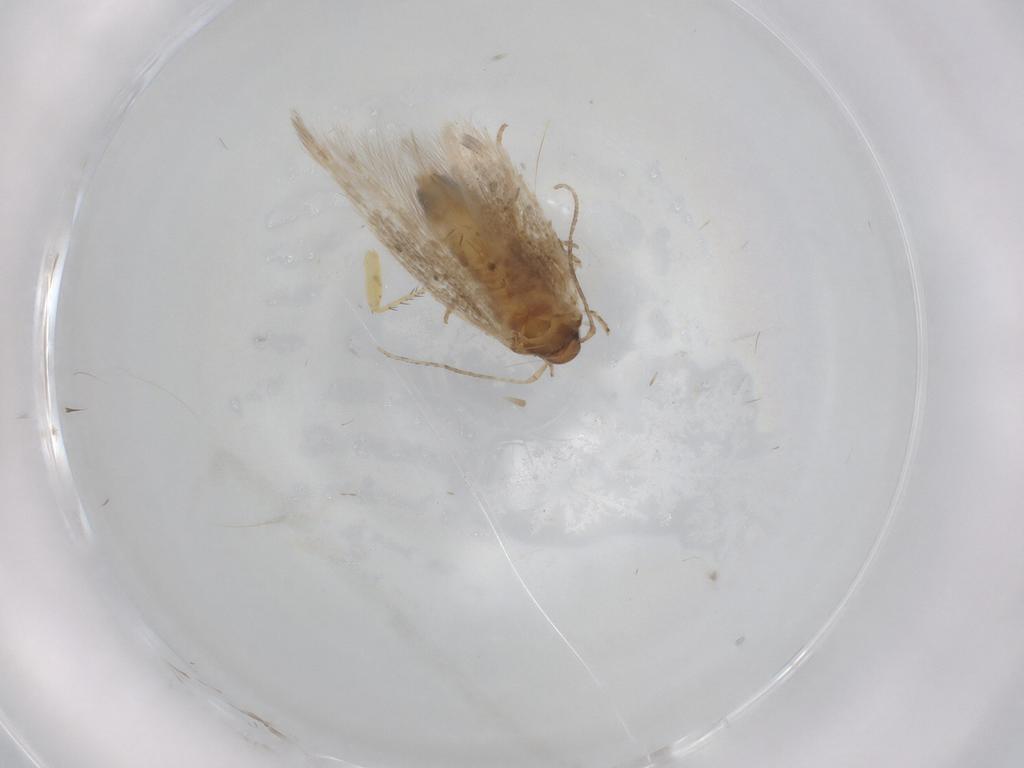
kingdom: Animalia
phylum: Arthropoda
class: Insecta
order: Lepidoptera
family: Cosmopterigidae
